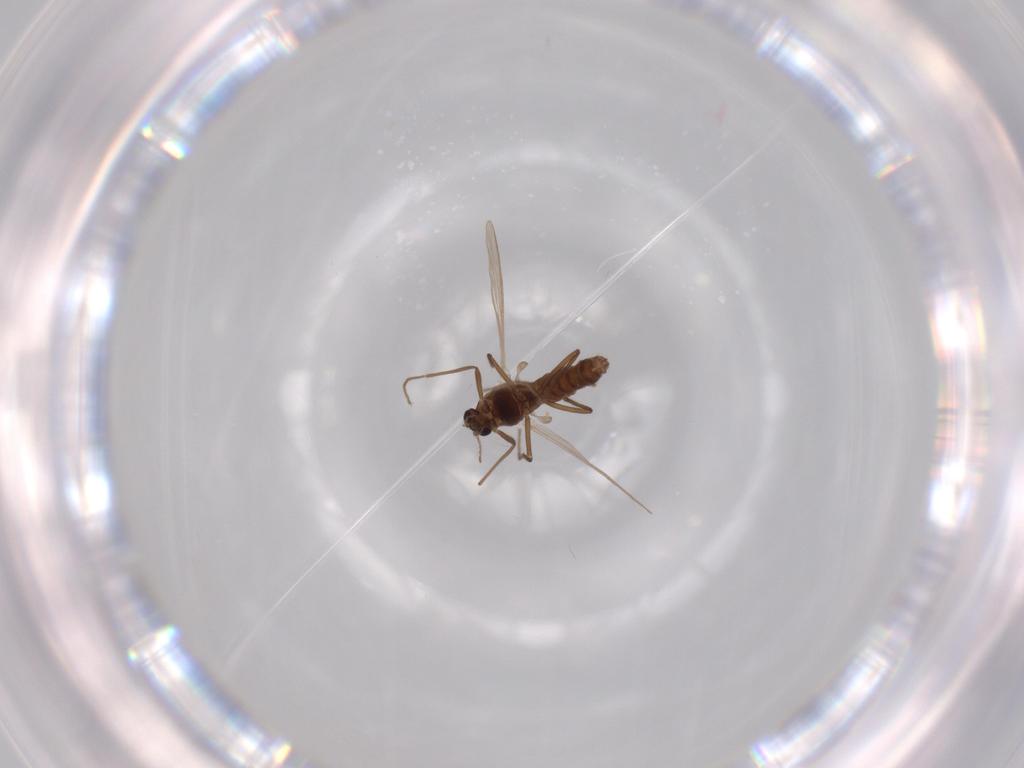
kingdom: Animalia
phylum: Arthropoda
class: Insecta
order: Diptera
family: Chironomidae
